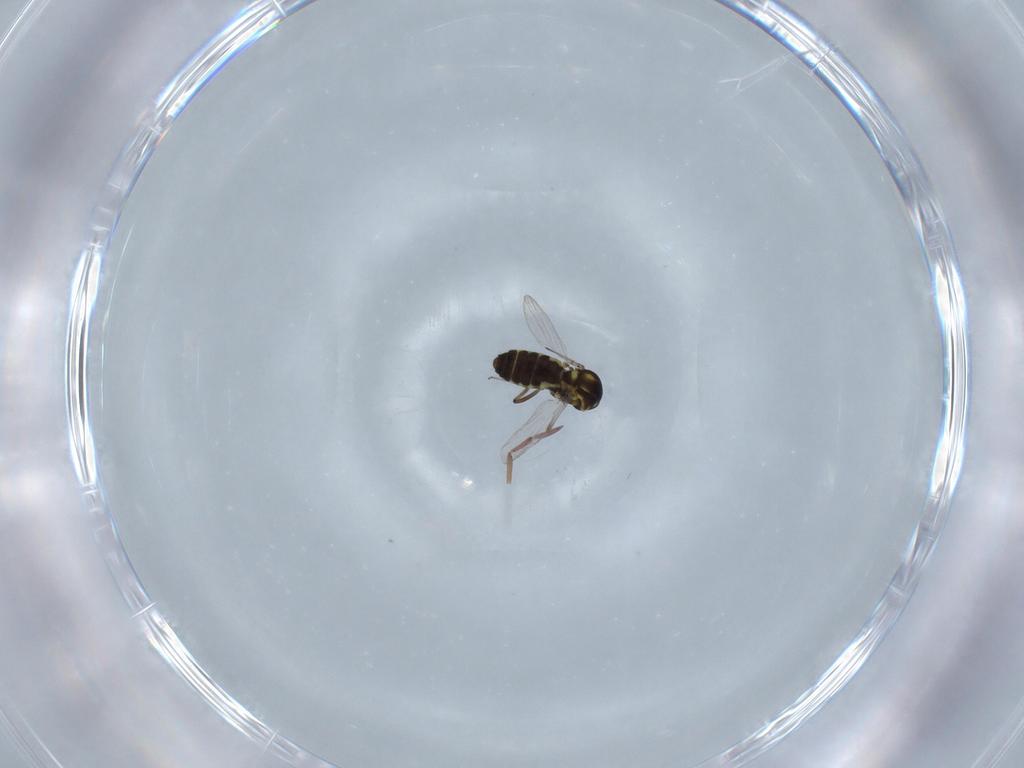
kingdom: Animalia
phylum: Arthropoda
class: Insecta
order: Diptera
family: Ceratopogonidae
